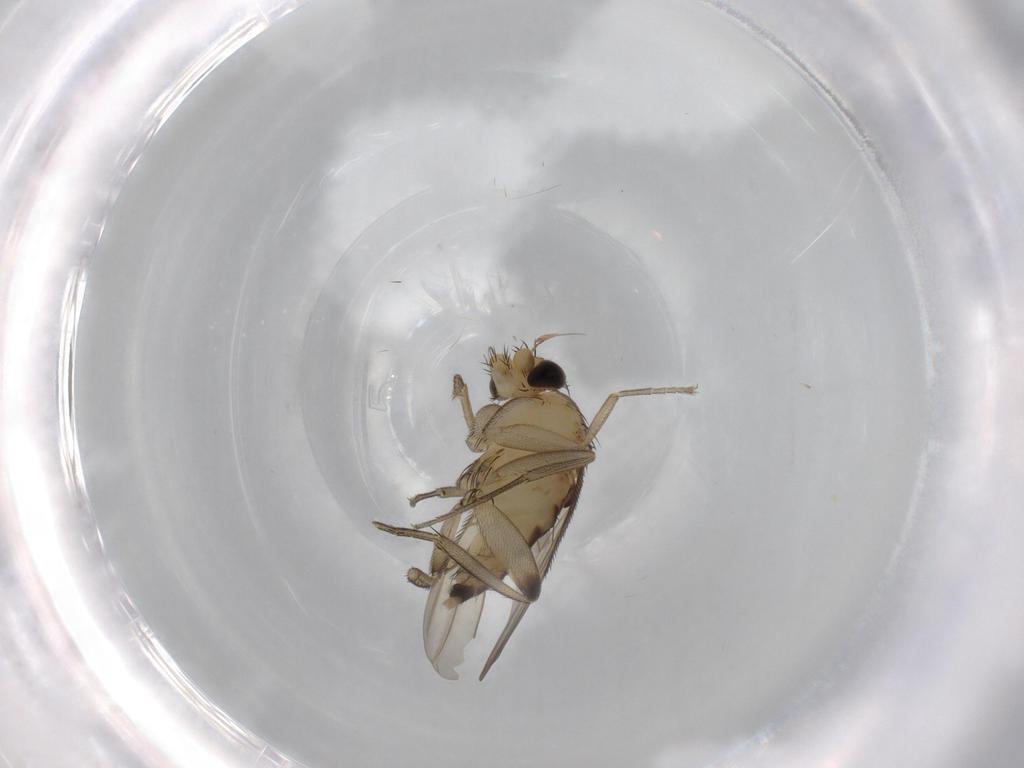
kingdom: Animalia
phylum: Arthropoda
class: Insecta
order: Diptera
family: Phoridae
